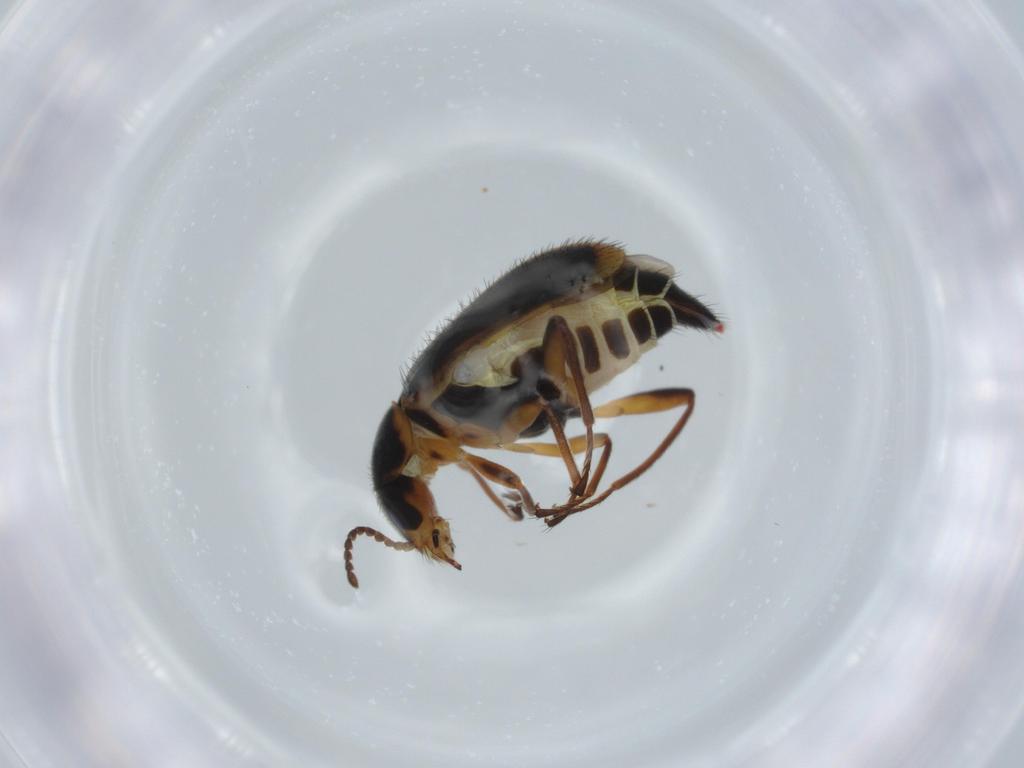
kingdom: Animalia
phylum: Arthropoda
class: Insecta
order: Coleoptera
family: Melyridae
